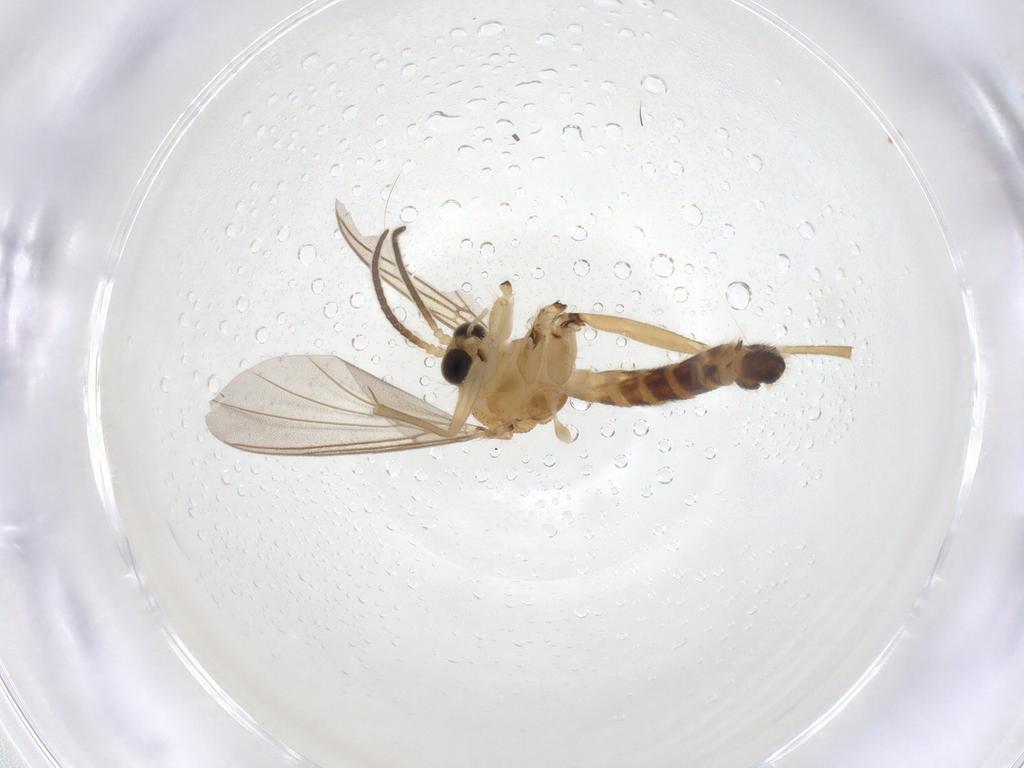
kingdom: Animalia
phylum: Arthropoda
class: Insecta
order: Diptera
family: Mycetophilidae
